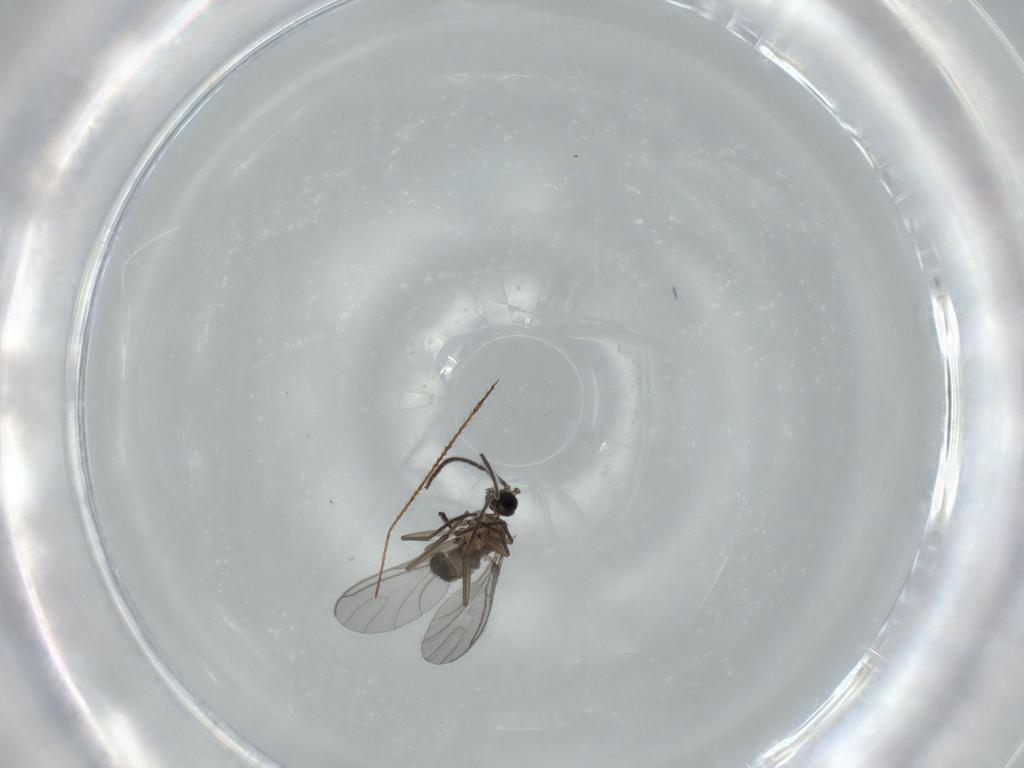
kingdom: Animalia
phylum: Arthropoda
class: Insecta
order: Diptera
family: Sciaridae
